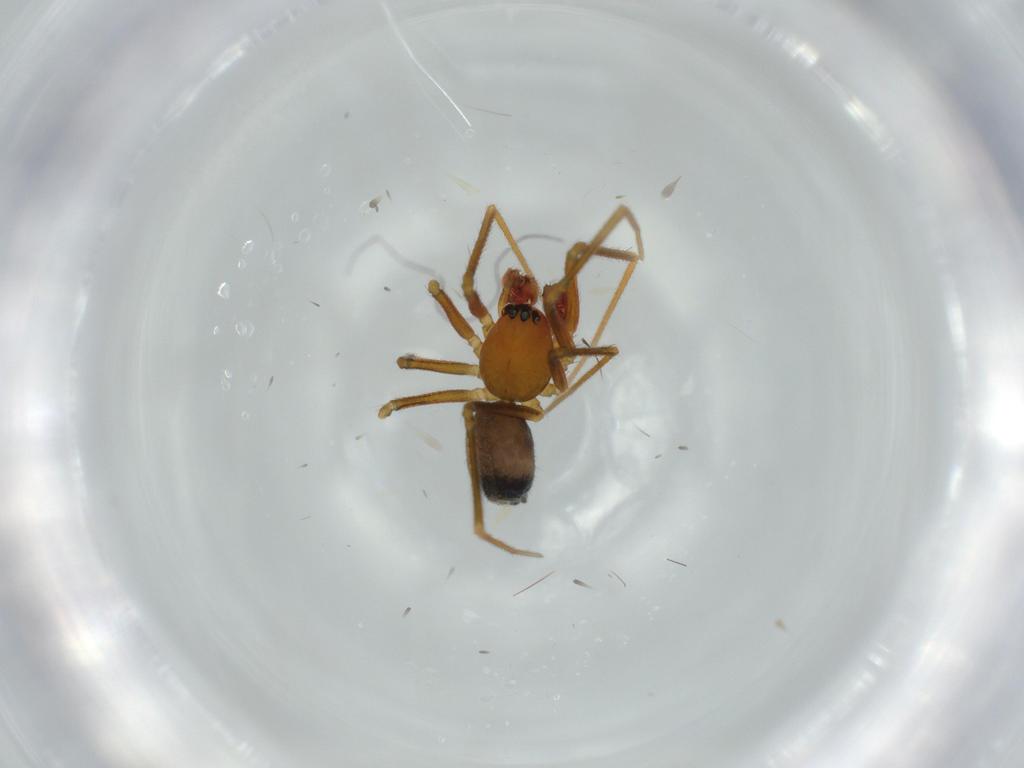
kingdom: Animalia
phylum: Arthropoda
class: Arachnida
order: Araneae
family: Linyphiidae
